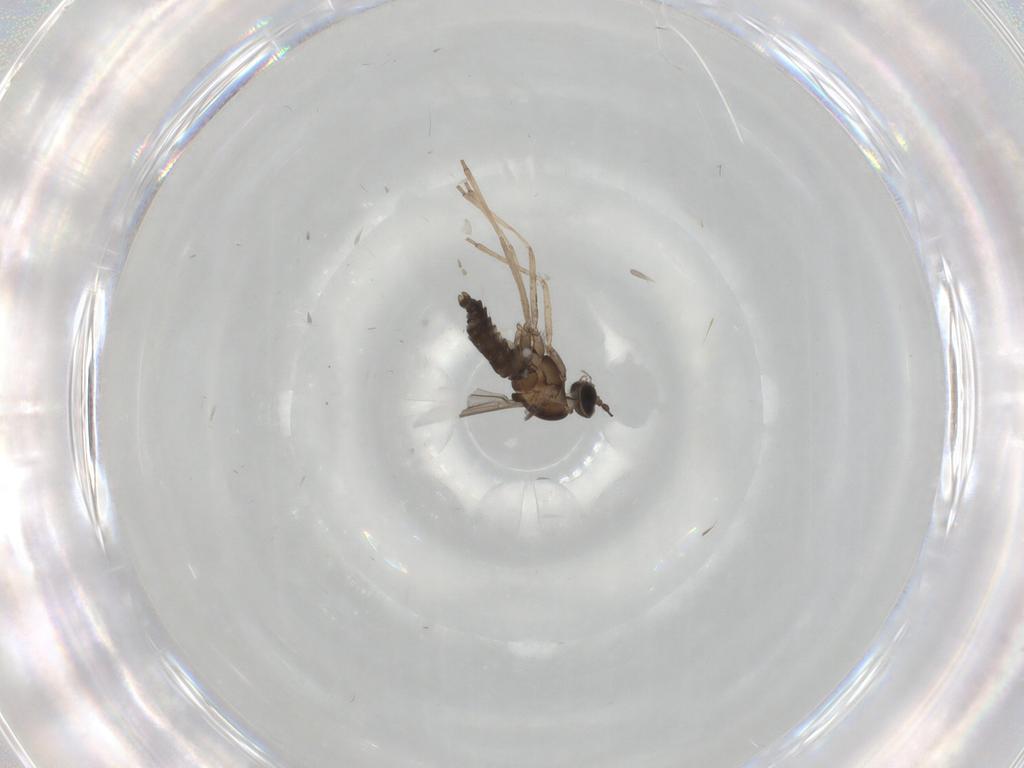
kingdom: Animalia
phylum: Arthropoda
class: Insecta
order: Diptera
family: Cecidomyiidae
